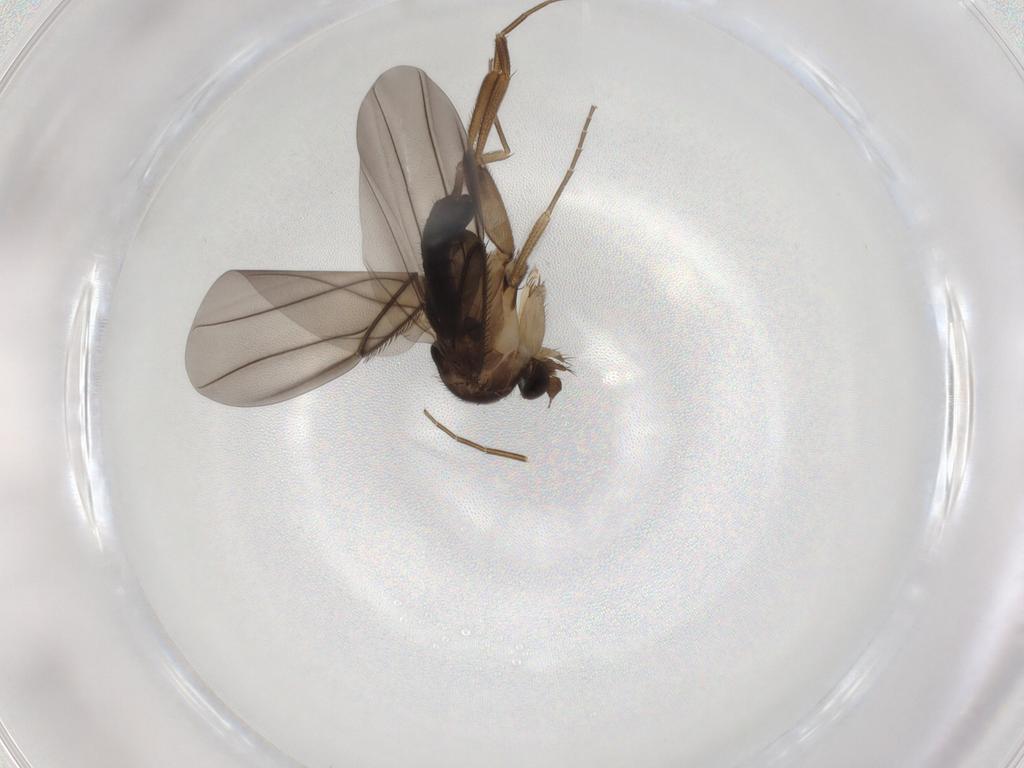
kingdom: Animalia
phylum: Arthropoda
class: Insecta
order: Diptera
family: Phoridae
